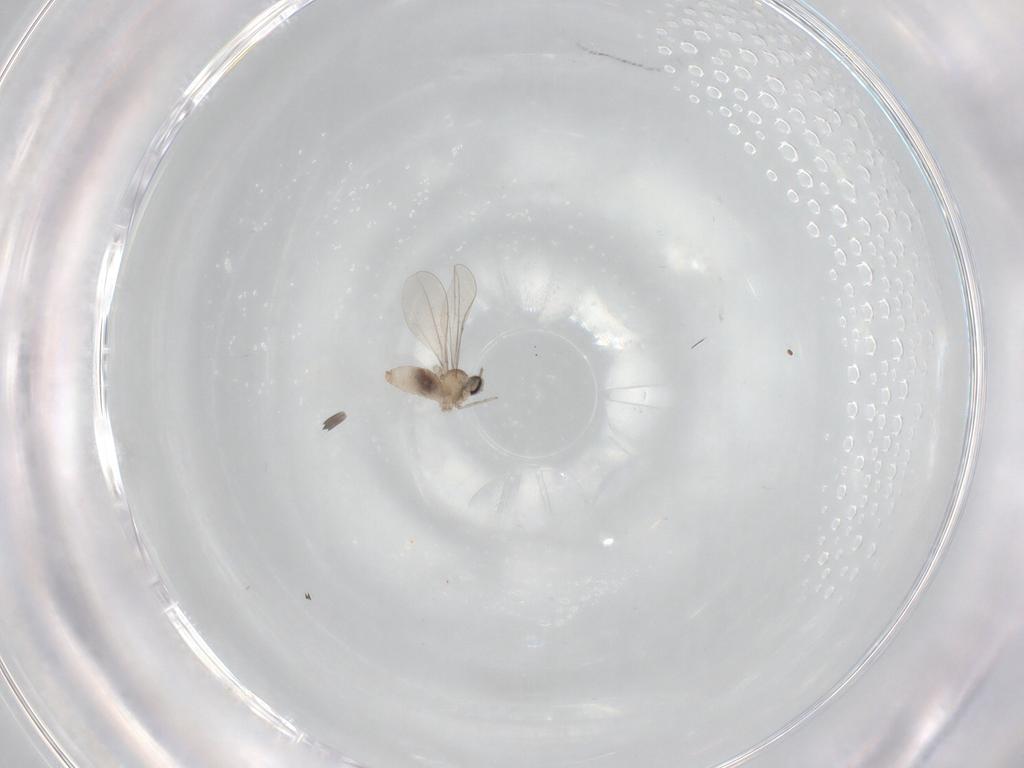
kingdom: Animalia
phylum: Arthropoda
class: Insecta
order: Diptera
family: Cecidomyiidae
